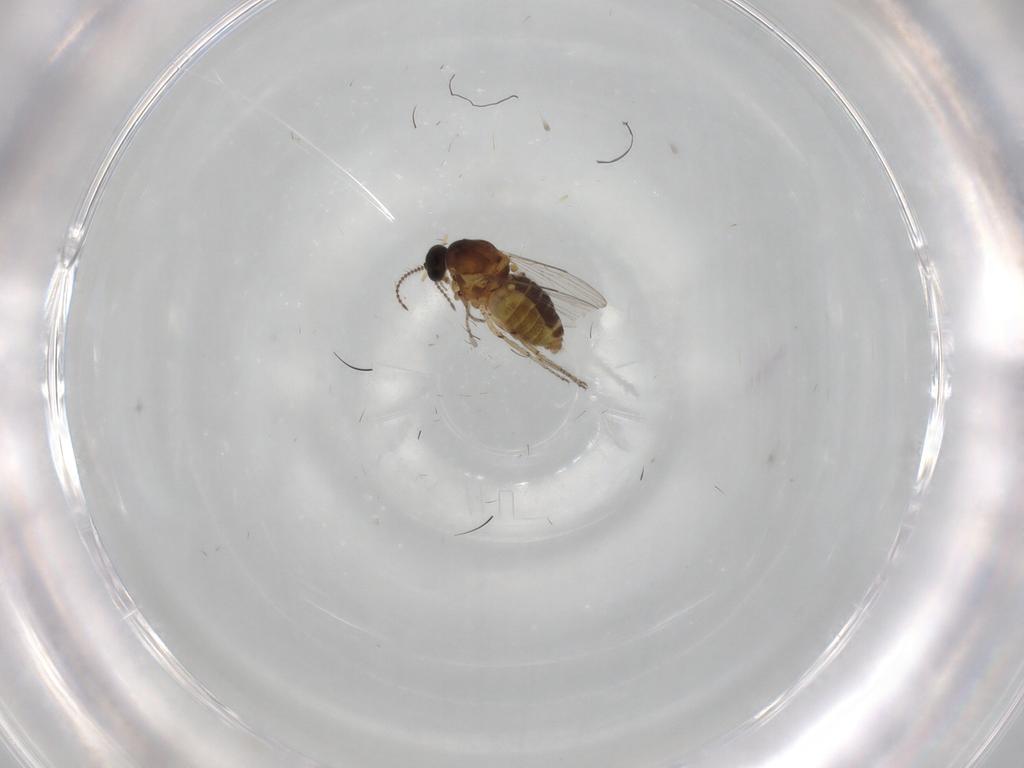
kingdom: Animalia
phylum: Arthropoda
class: Insecta
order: Diptera
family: Ceratopogonidae
